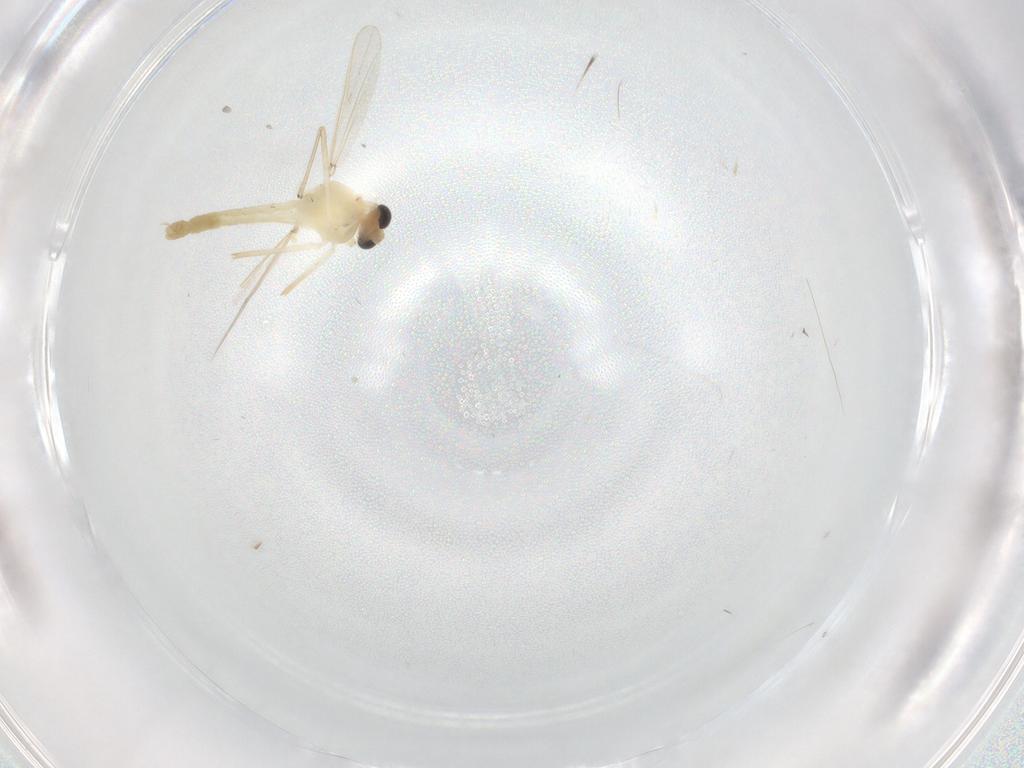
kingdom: Animalia
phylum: Arthropoda
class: Insecta
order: Diptera
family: Chironomidae
